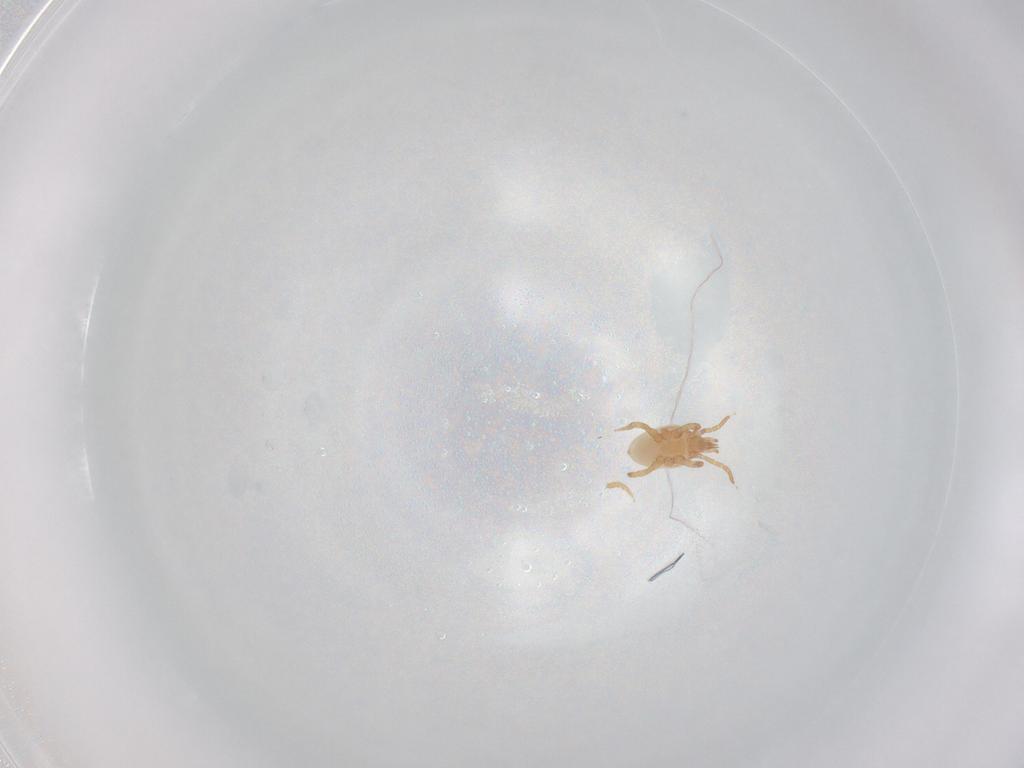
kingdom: Animalia
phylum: Arthropoda
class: Arachnida
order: Mesostigmata
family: Parasitidae
